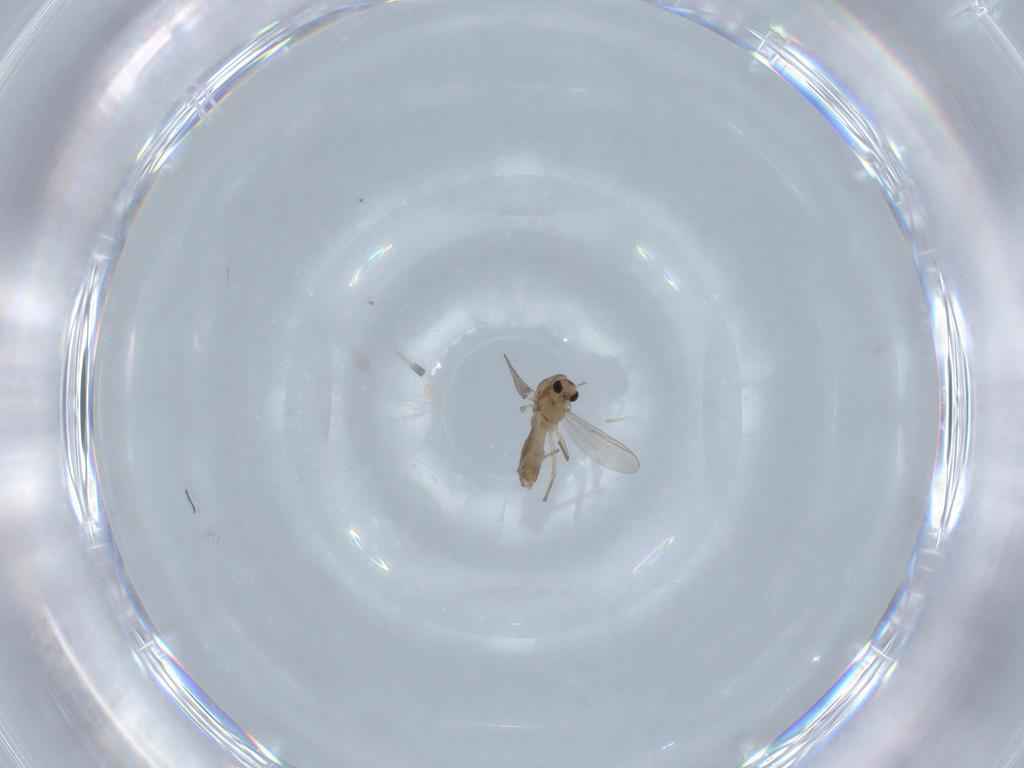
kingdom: Animalia
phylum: Arthropoda
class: Insecta
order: Diptera
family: Chironomidae
